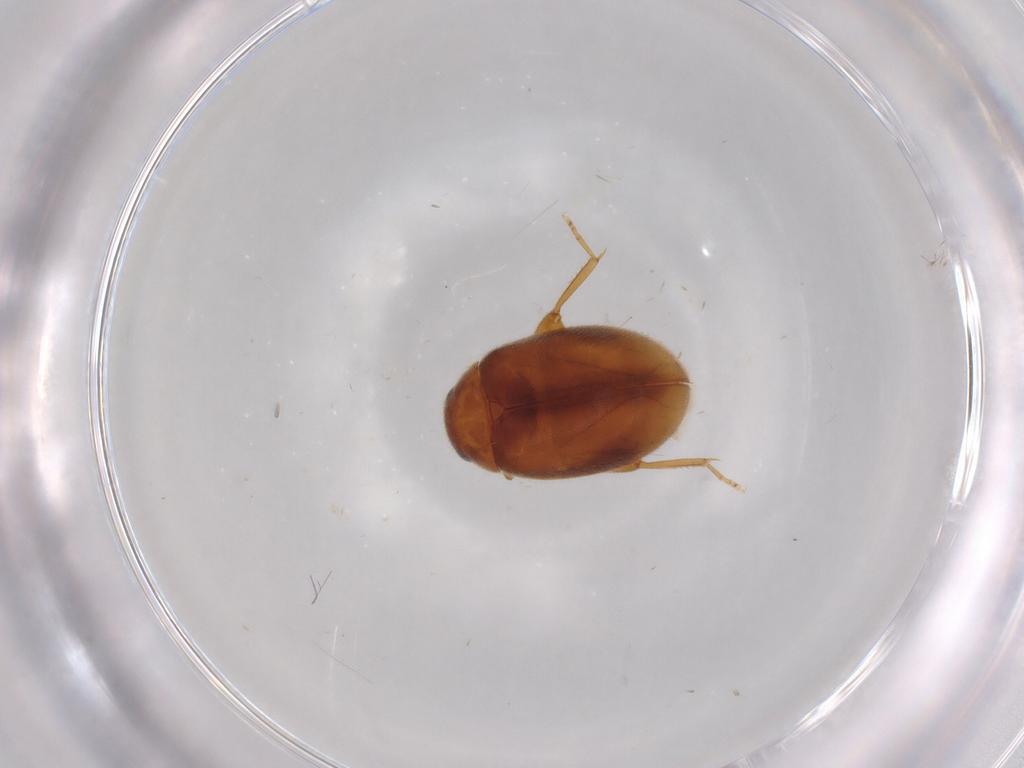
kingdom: Animalia
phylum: Arthropoda
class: Insecta
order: Coleoptera
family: Scirtidae
